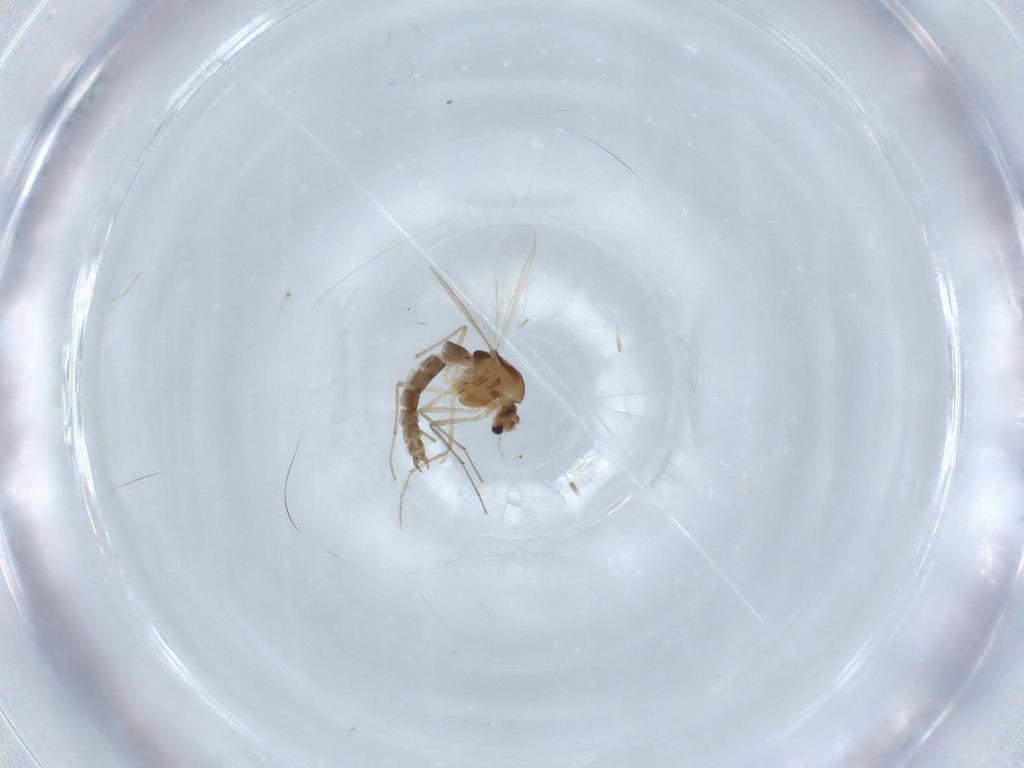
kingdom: Animalia
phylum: Arthropoda
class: Insecta
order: Diptera
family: Chironomidae
